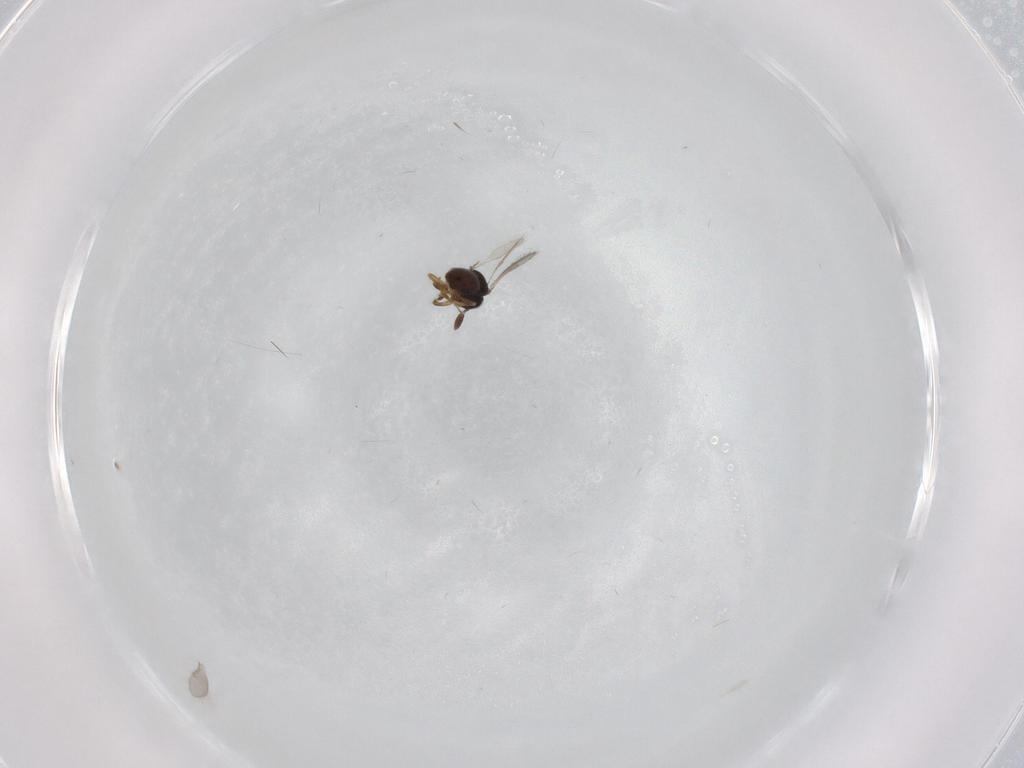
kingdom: Animalia
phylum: Arthropoda
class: Insecta
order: Hymenoptera
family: Scelionidae
